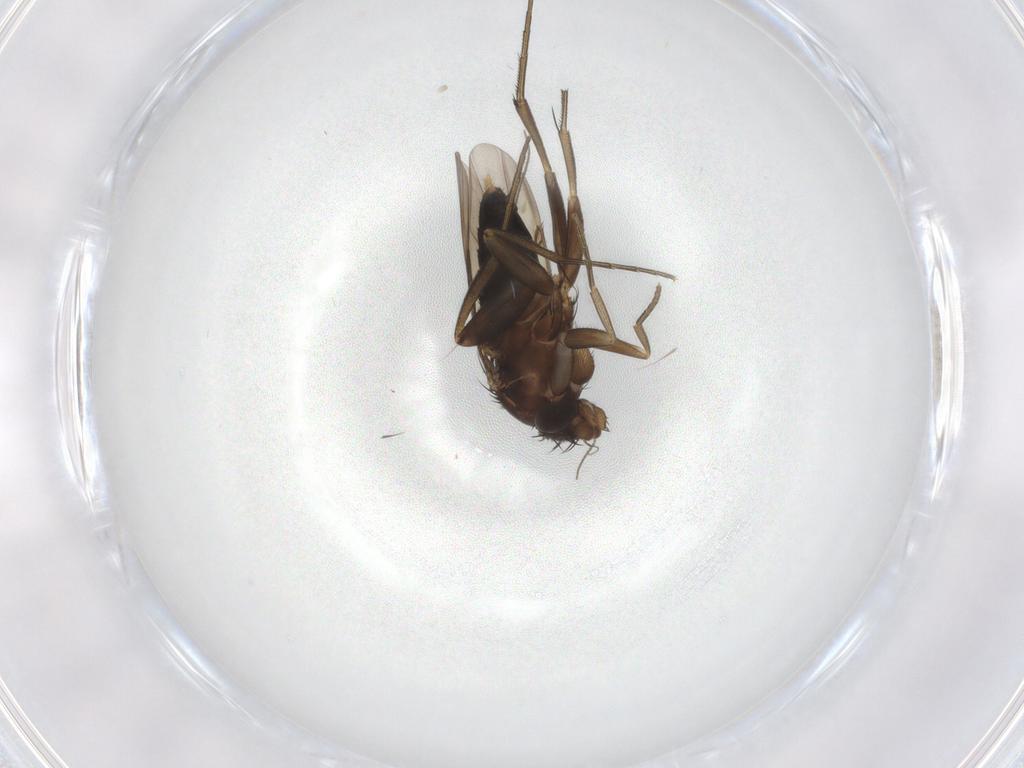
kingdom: Animalia
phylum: Arthropoda
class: Insecta
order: Diptera
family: Phoridae
